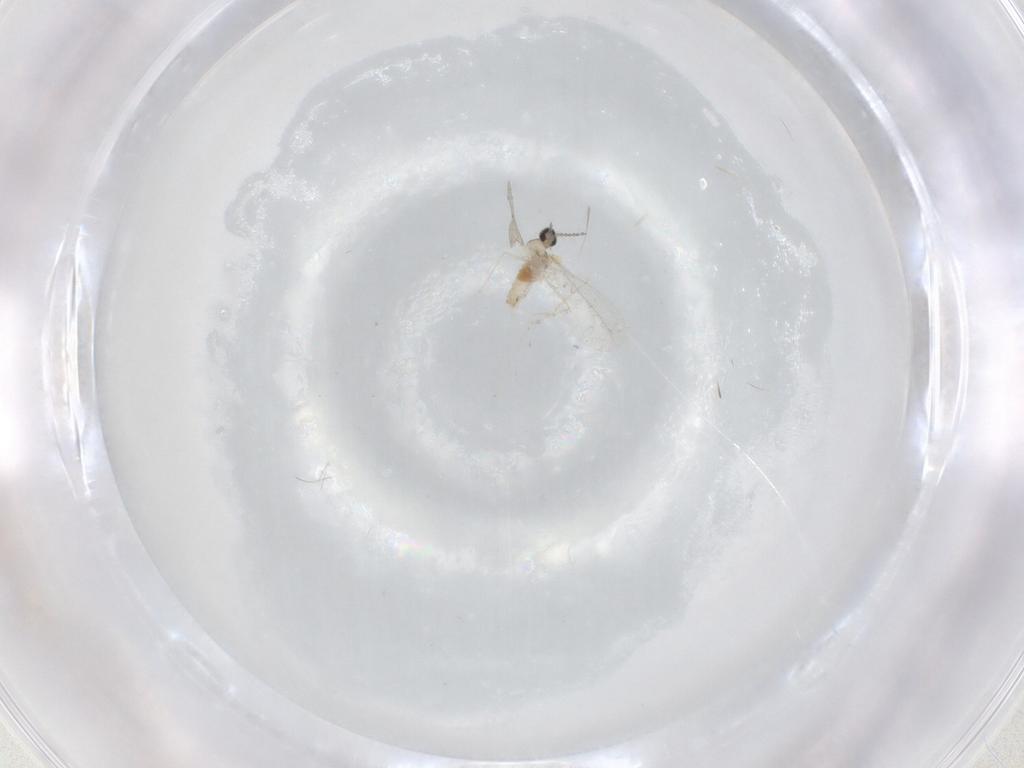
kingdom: Animalia
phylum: Arthropoda
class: Insecta
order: Diptera
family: Cecidomyiidae
